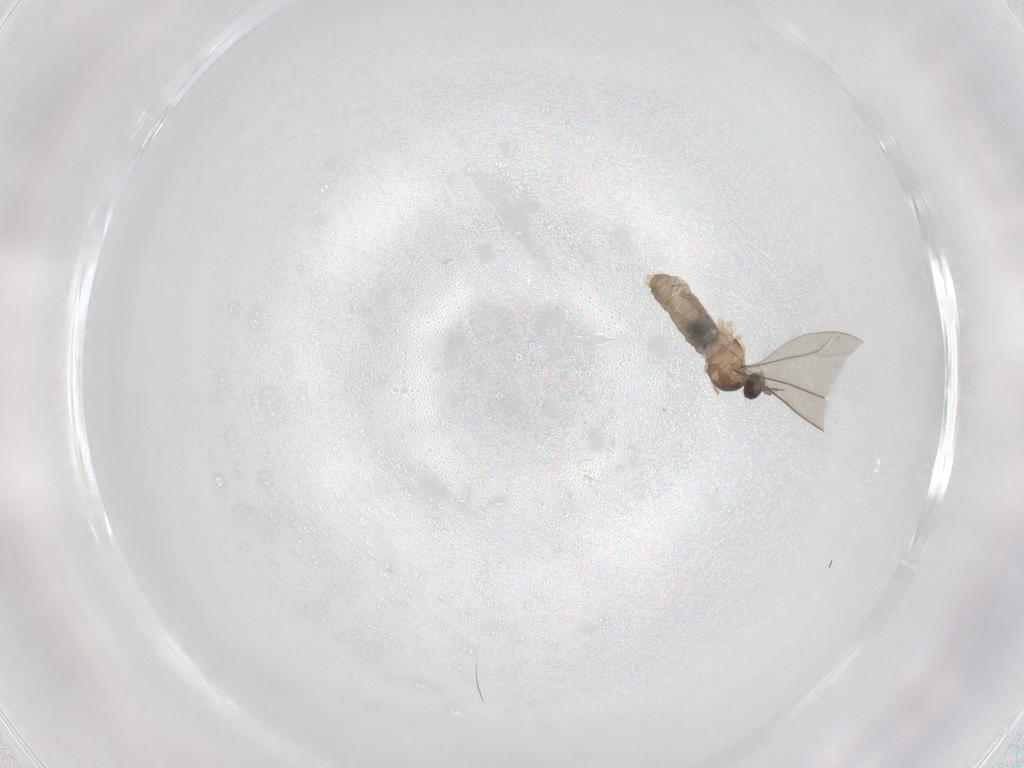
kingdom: Animalia
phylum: Arthropoda
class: Insecta
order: Diptera
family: Cecidomyiidae
